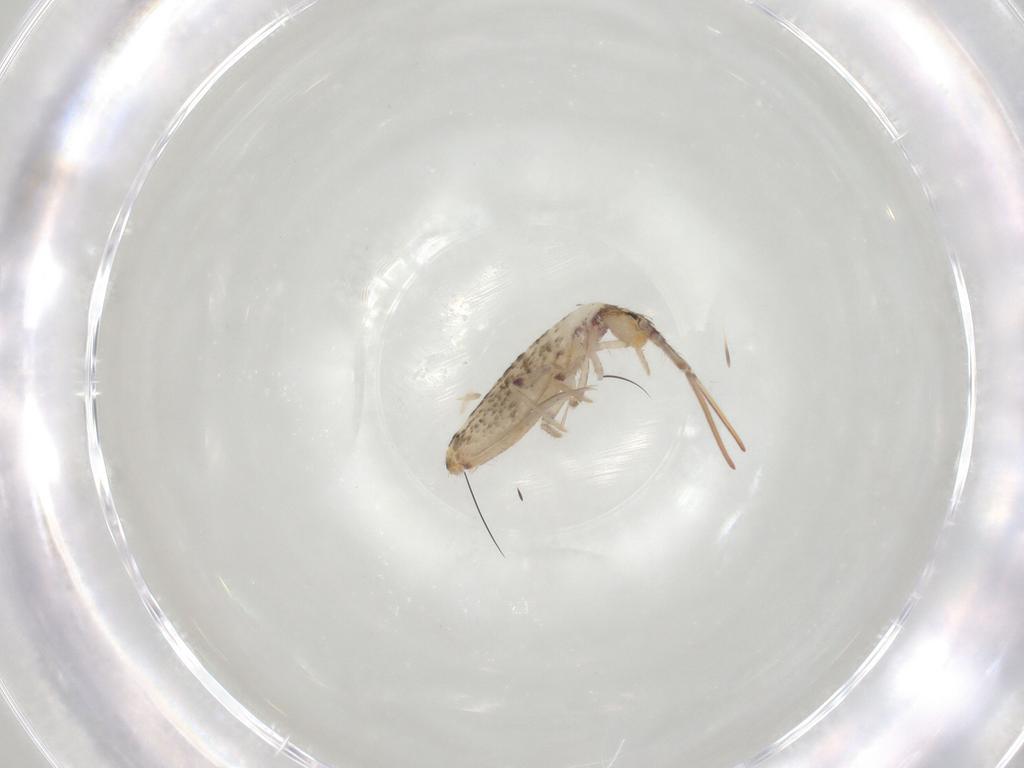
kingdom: Animalia
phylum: Arthropoda
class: Collembola
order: Entomobryomorpha
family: Entomobryidae
